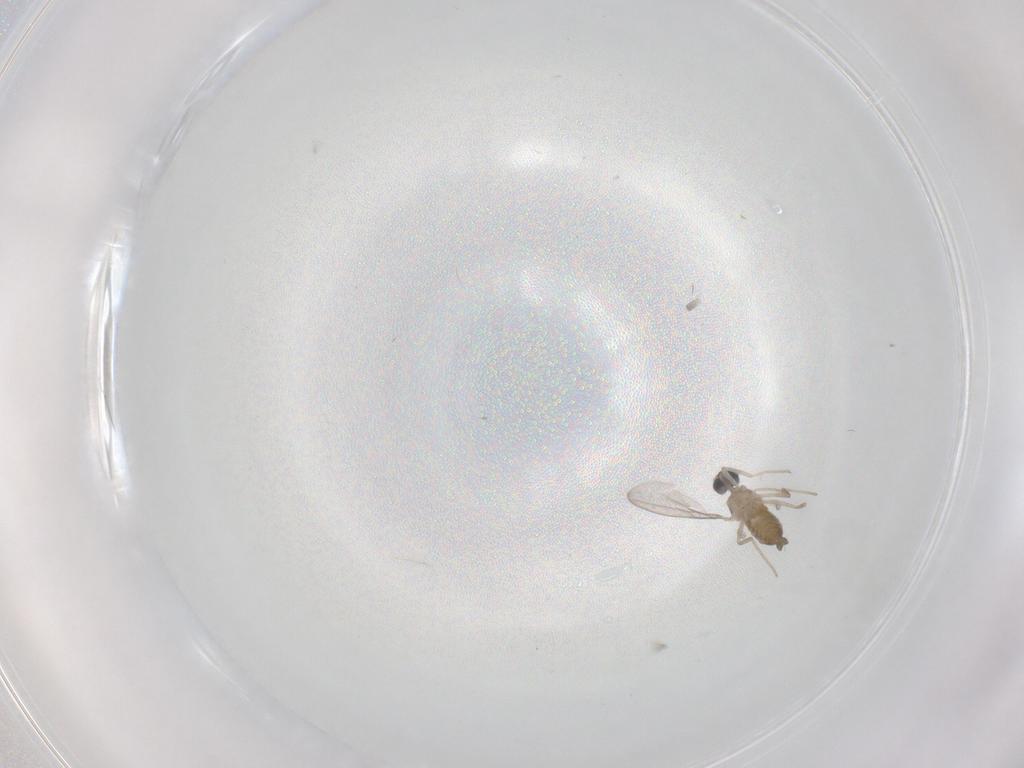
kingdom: Animalia
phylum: Arthropoda
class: Insecta
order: Diptera
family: Cecidomyiidae
